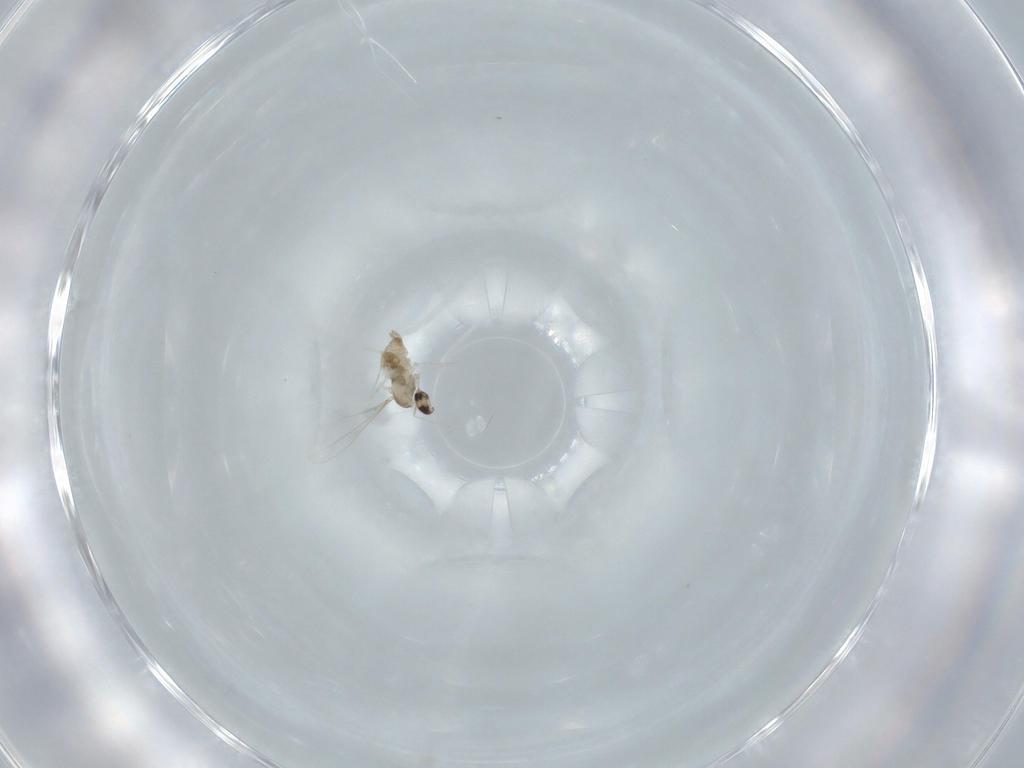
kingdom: Animalia
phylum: Arthropoda
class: Insecta
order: Diptera
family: Cecidomyiidae
